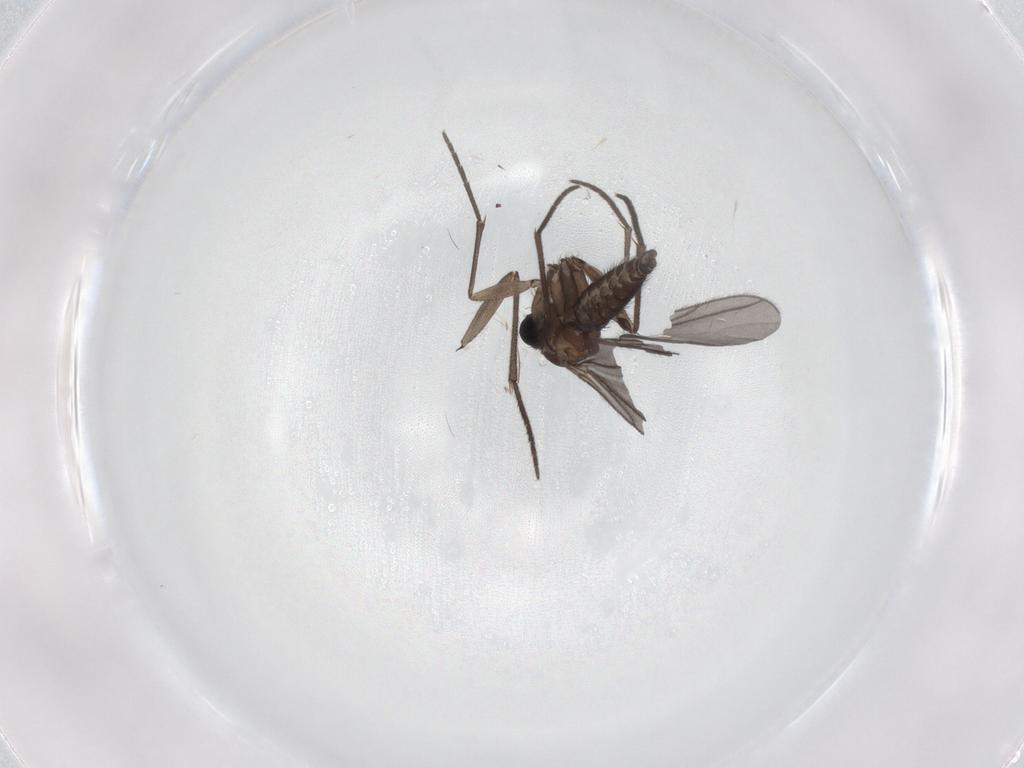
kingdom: Animalia
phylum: Arthropoda
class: Insecta
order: Diptera
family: Sciaridae
